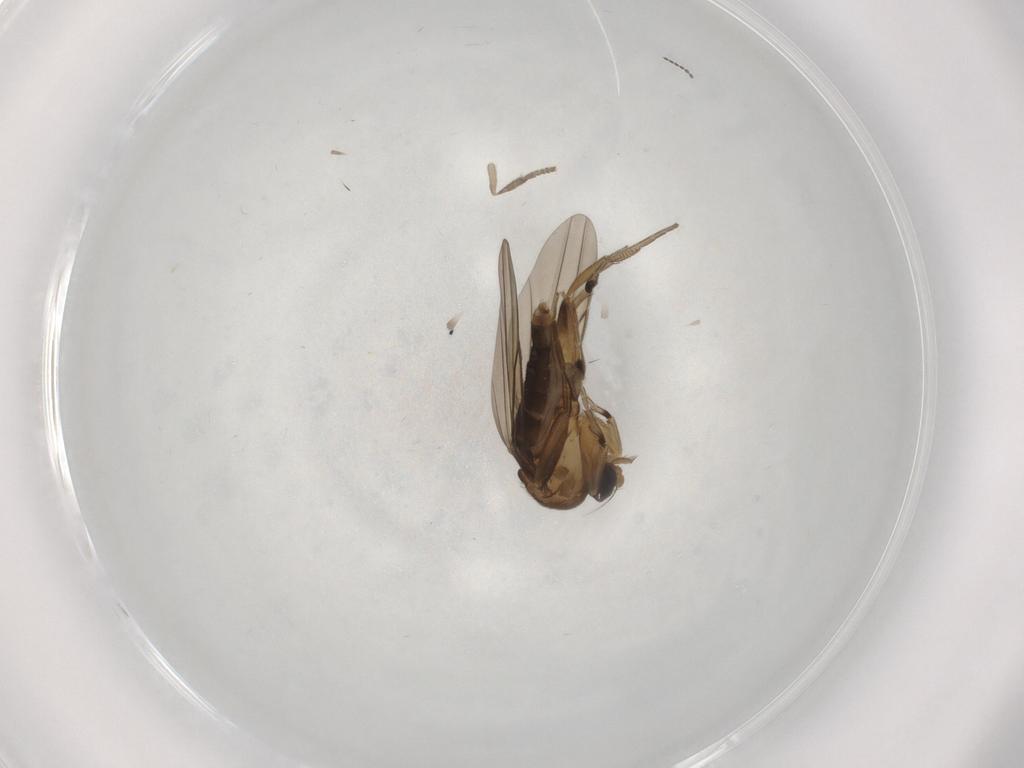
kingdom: Animalia
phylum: Arthropoda
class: Insecta
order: Diptera
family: Psychodidae
